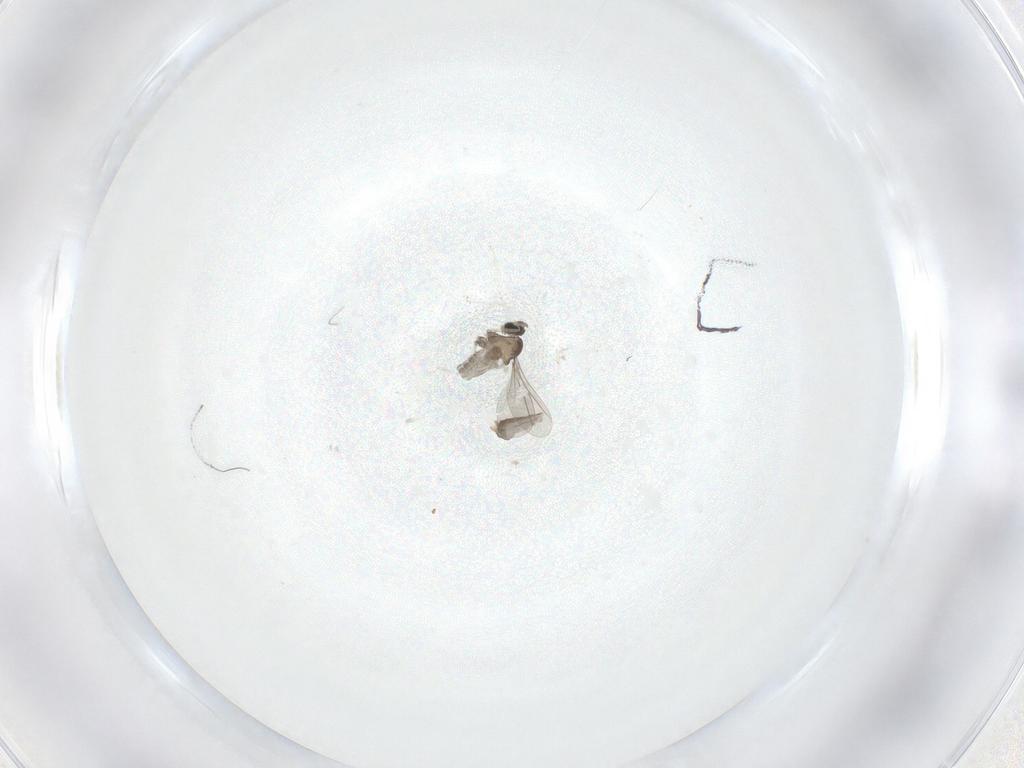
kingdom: Animalia
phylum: Arthropoda
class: Insecta
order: Diptera
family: Cecidomyiidae
